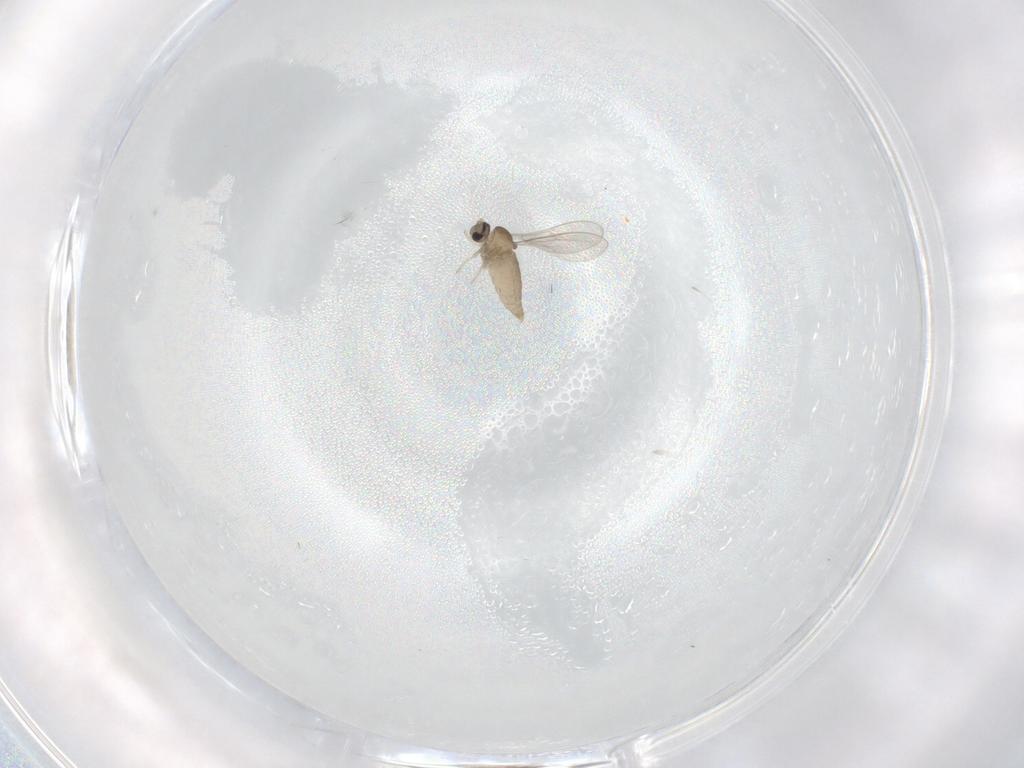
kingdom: Animalia
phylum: Arthropoda
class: Insecta
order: Diptera
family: Cecidomyiidae
